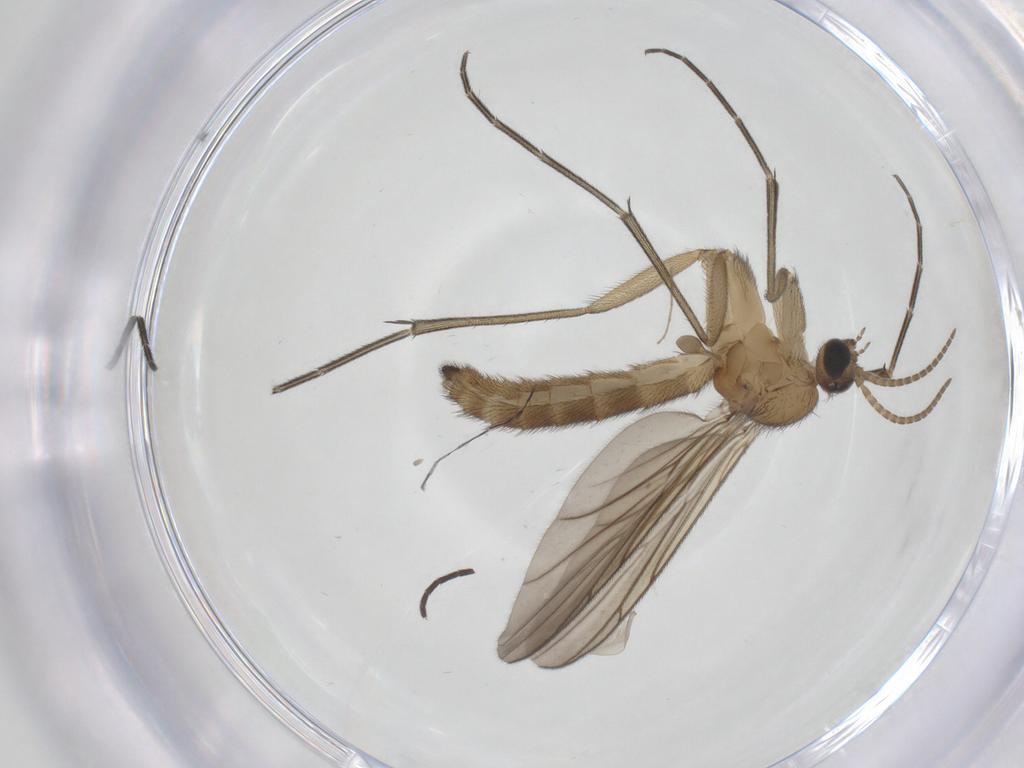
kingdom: Animalia
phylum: Arthropoda
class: Insecta
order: Diptera
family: Keroplatidae
